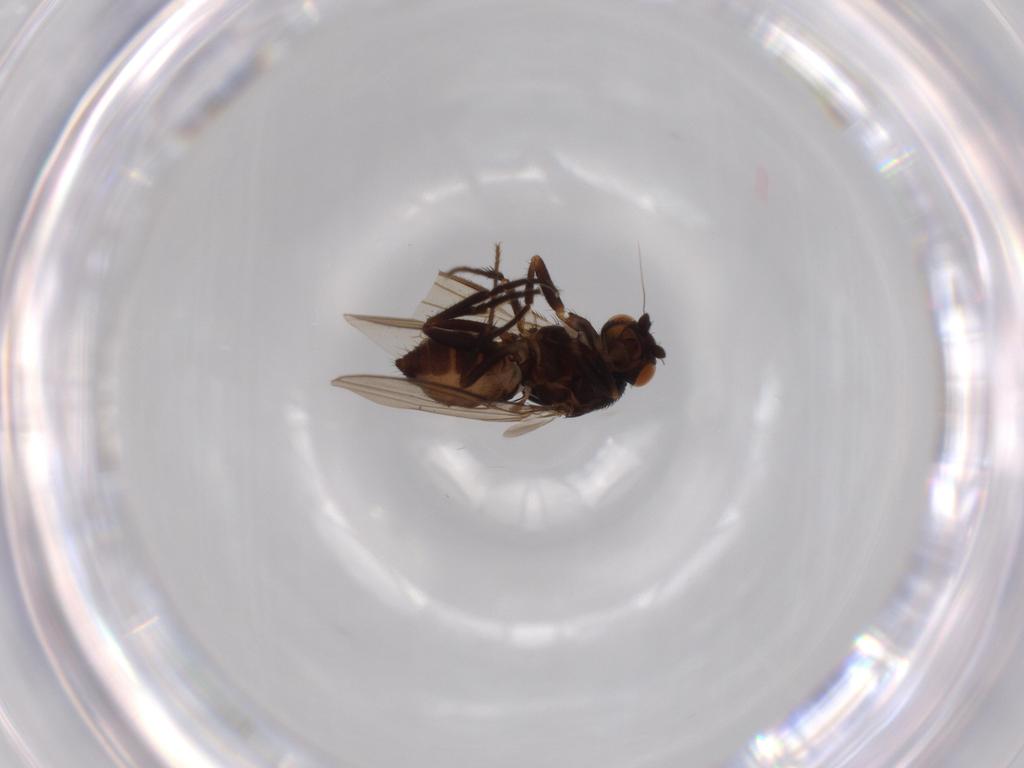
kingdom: Animalia
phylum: Arthropoda
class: Insecta
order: Diptera
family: Sphaeroceridae
